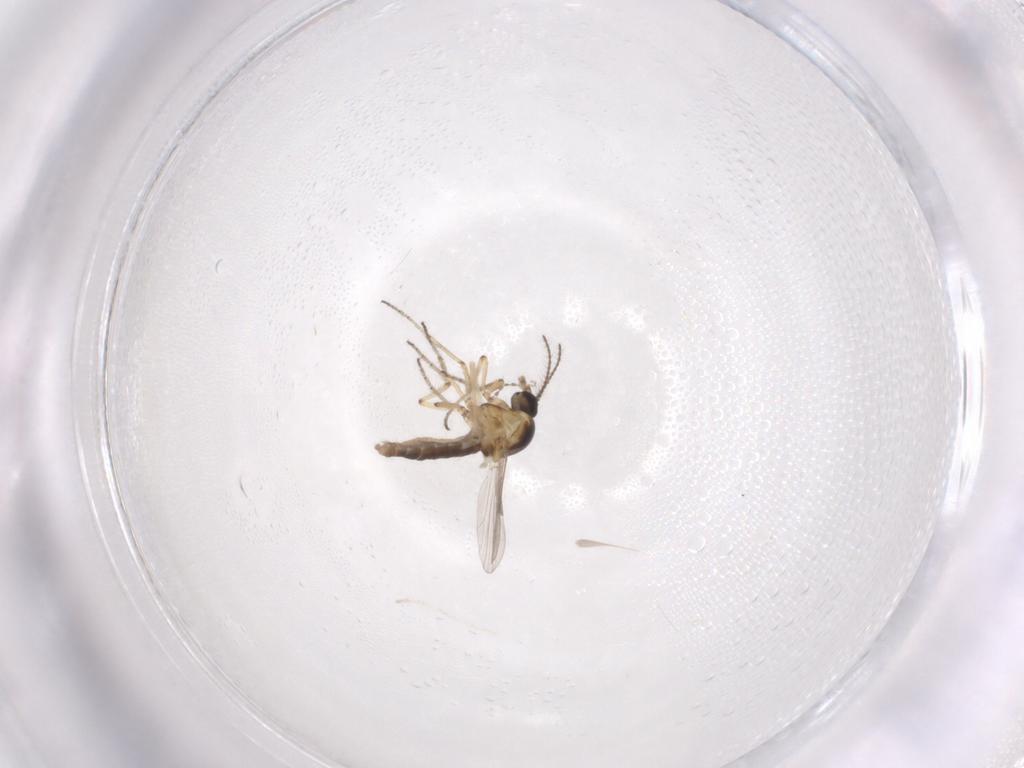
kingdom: Animalia
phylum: Arthropoda
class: Insecta
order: Diptera
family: Ceratopogonidae
